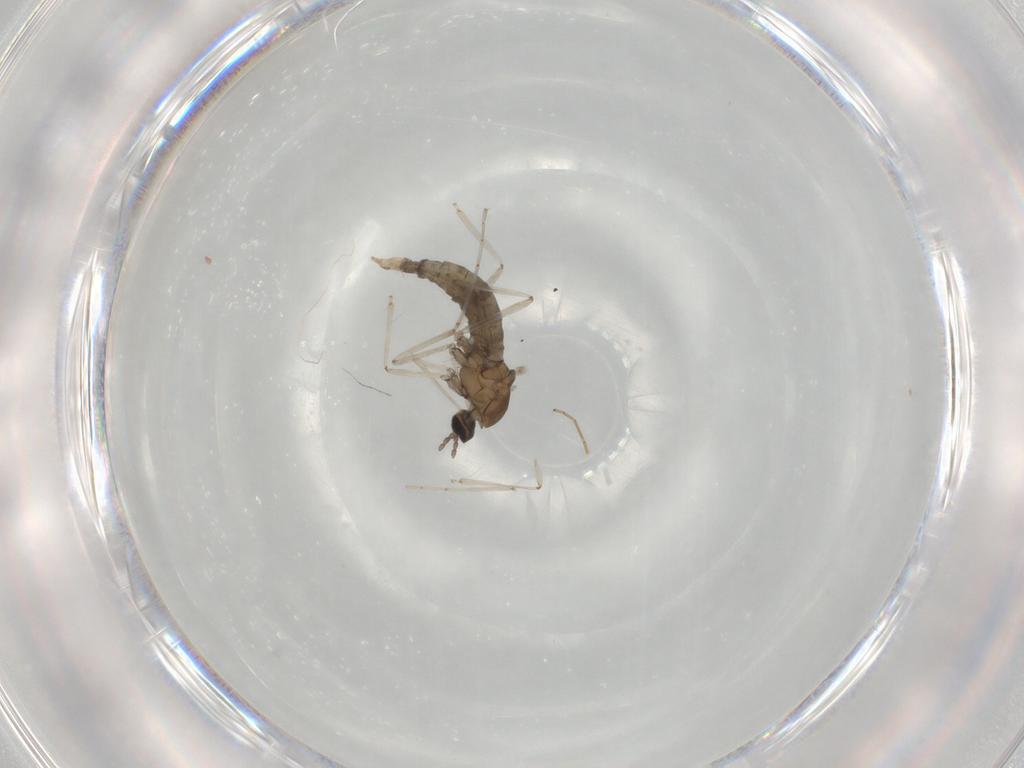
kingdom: Animalia
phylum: Arthropoda
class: Insecta
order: Diptera
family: Cecidomyiidae
